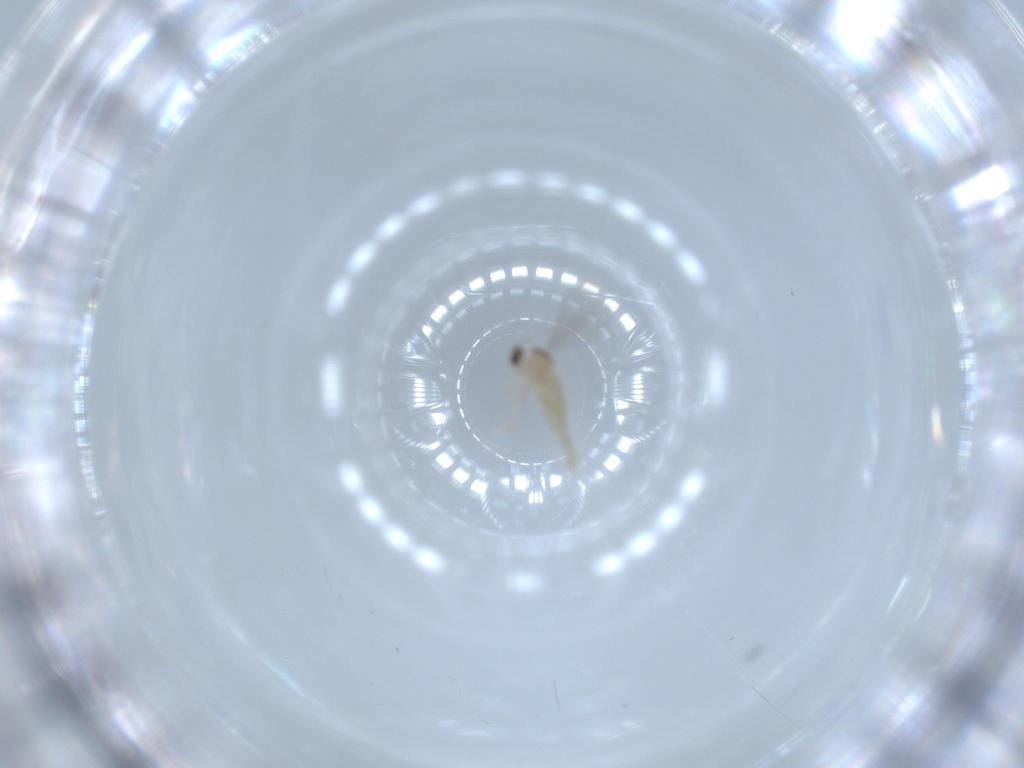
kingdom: Animalia
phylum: Arthropoda
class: Insecta
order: Diptera
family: Cecidomyiidae
